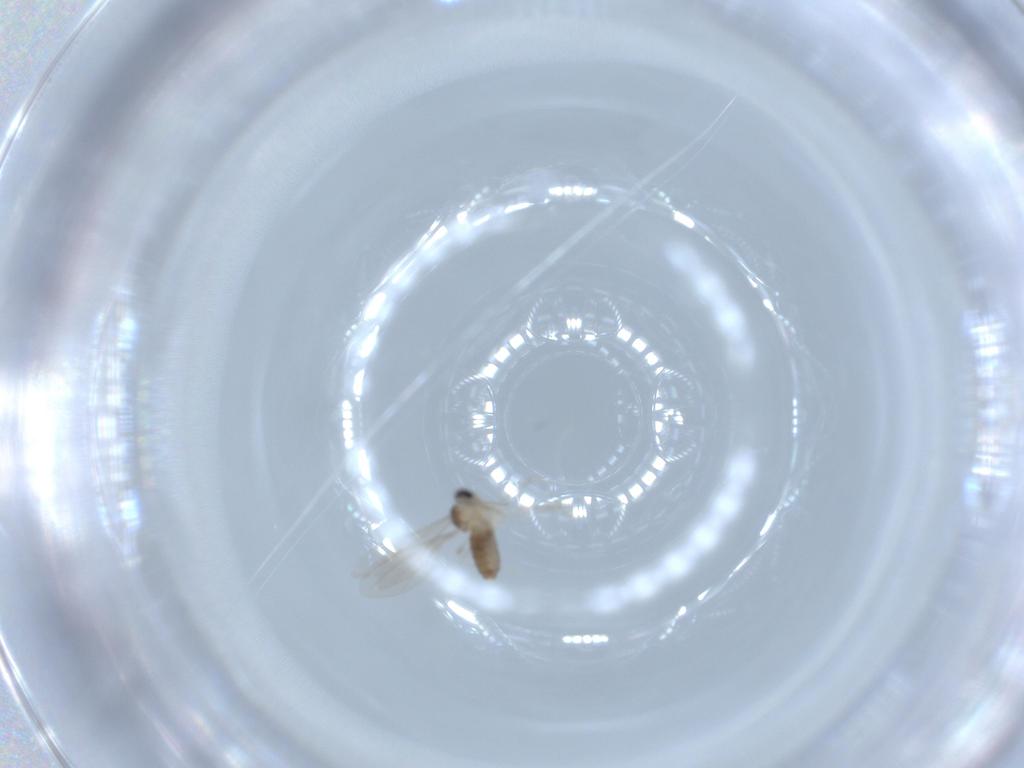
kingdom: Animalia
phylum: Arthropoda
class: Insecta
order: Diptera
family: Cecidomyiidae
